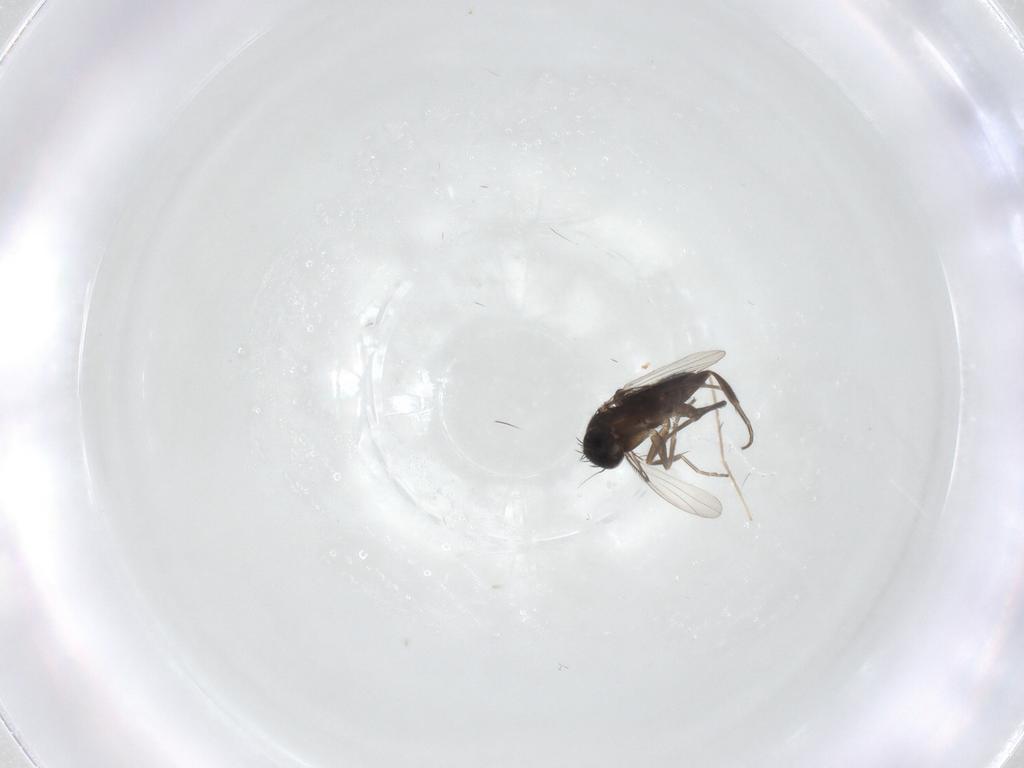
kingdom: Animalia
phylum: Arthropoda
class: Insecta
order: Diptera
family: Phoridae
